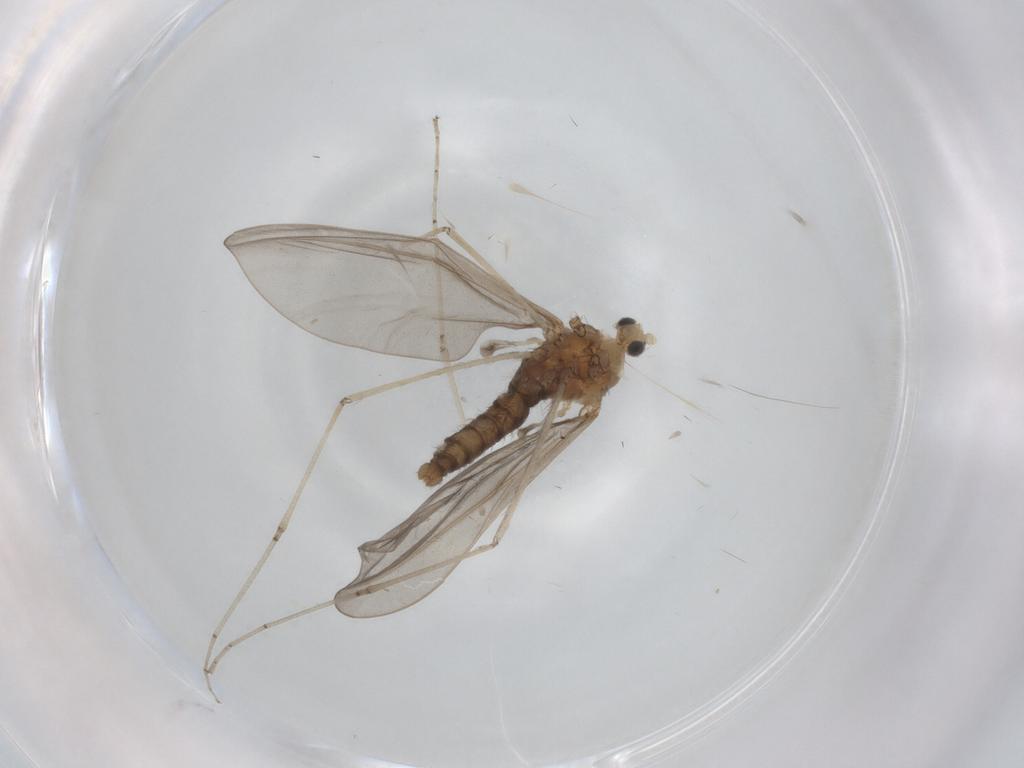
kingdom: Animalia
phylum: Arthropoda
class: Insecta
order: Diptera
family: Cecidomyiidae
